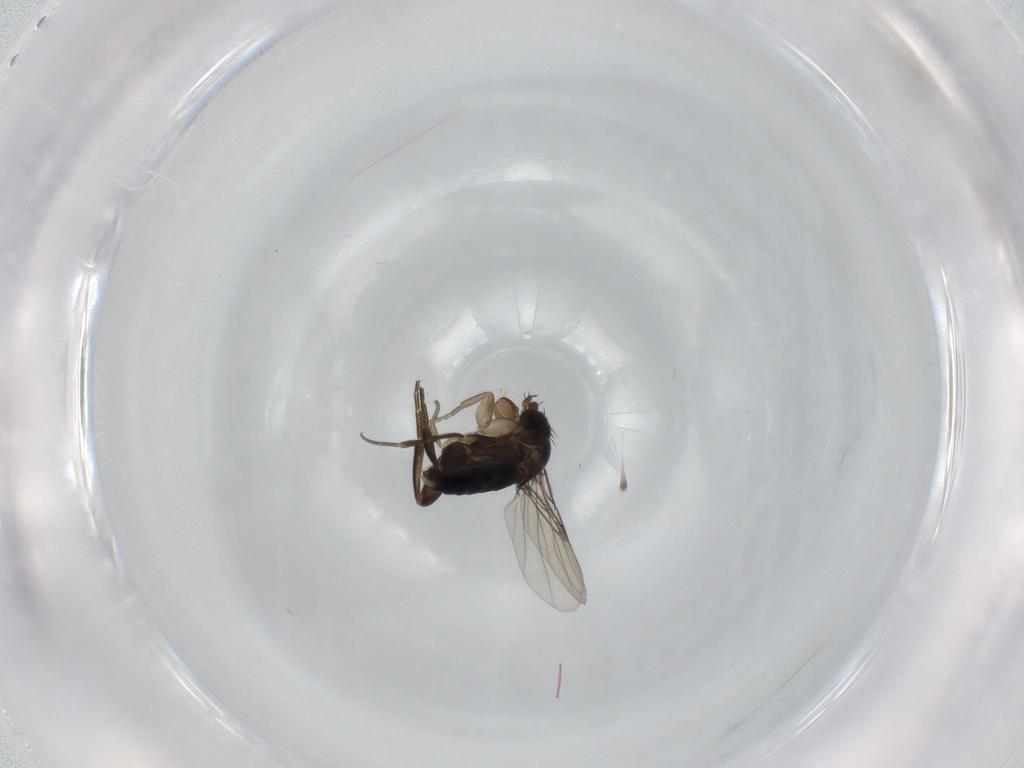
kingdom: Animalia
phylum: Arthropoda
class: Insecta
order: Diptera
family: Phoridae
